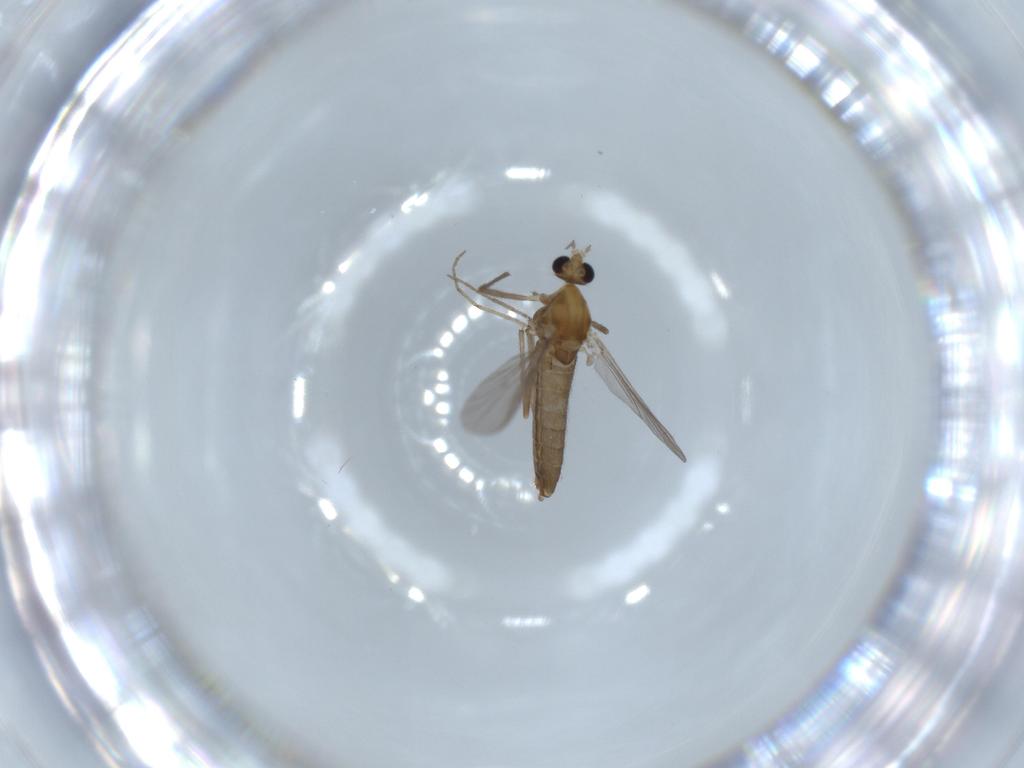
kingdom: Animalia
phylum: Arthropoda
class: Insecta
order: Diptera
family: Chironomidae
